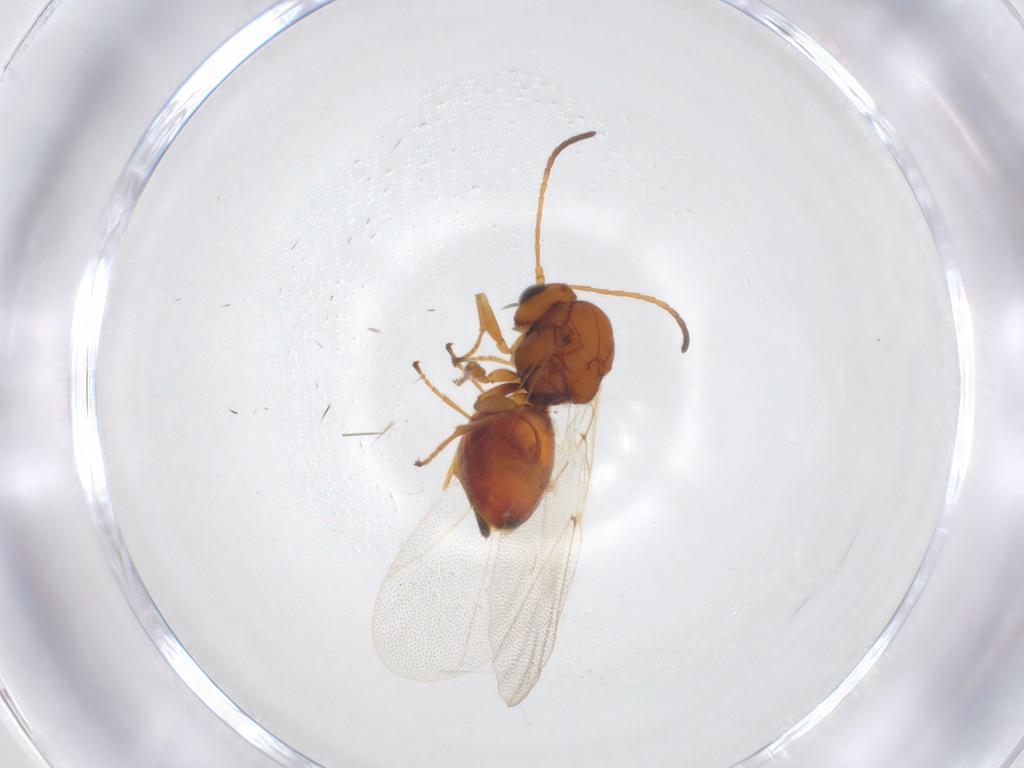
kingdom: Animalia
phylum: Arthropoda
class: Insecta
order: Hymenoptera
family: Cynipidae
